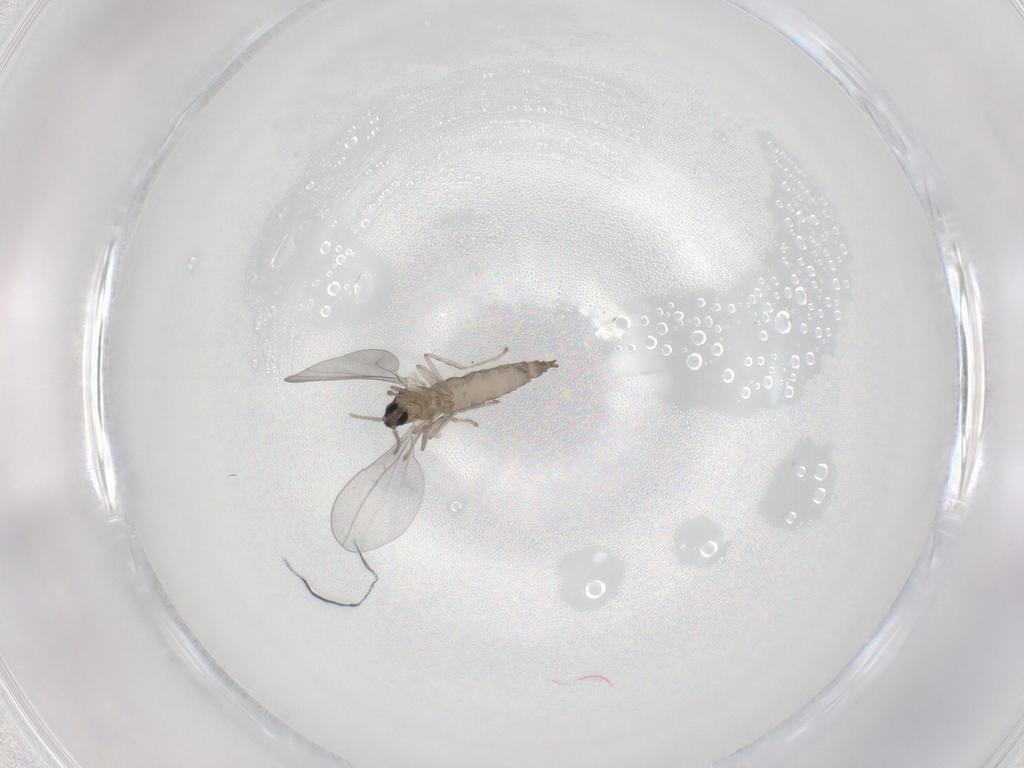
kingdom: Animalia
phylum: Arthropoda
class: Insecta
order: Diptera
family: Cecidomyiidae
